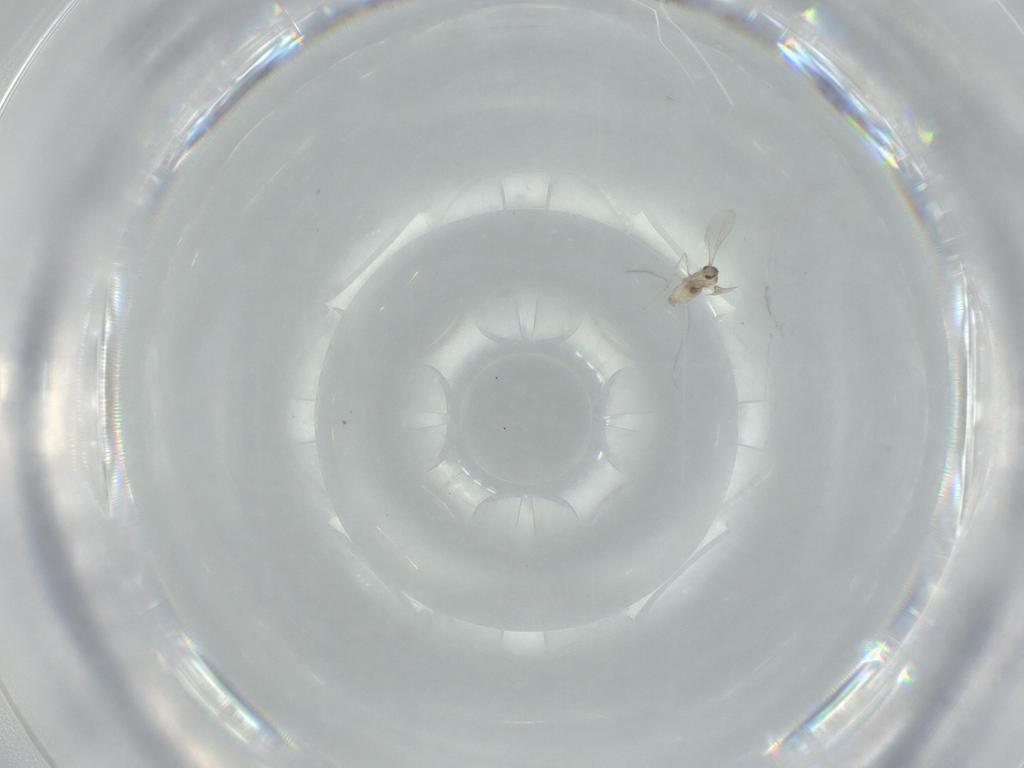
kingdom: Animalia
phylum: Arthropoda
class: Insecta
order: Diptera
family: Cecidomyiidae
